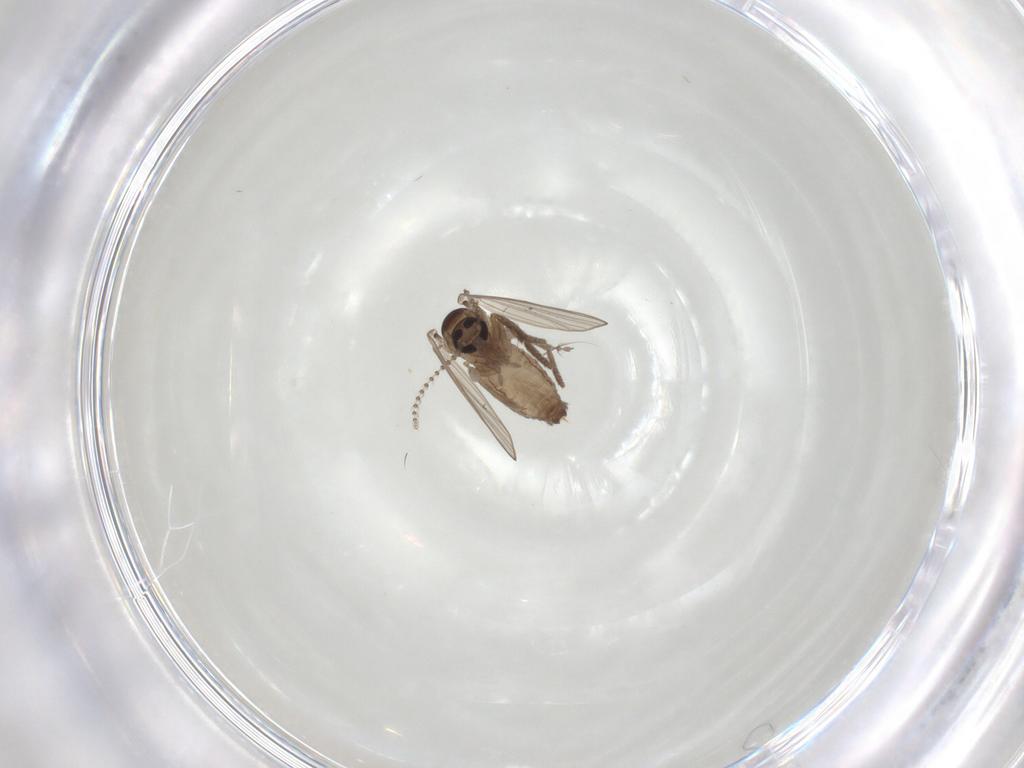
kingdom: Animalia
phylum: Arthropoda
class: Insecta
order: Diptera
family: Psychodidae
